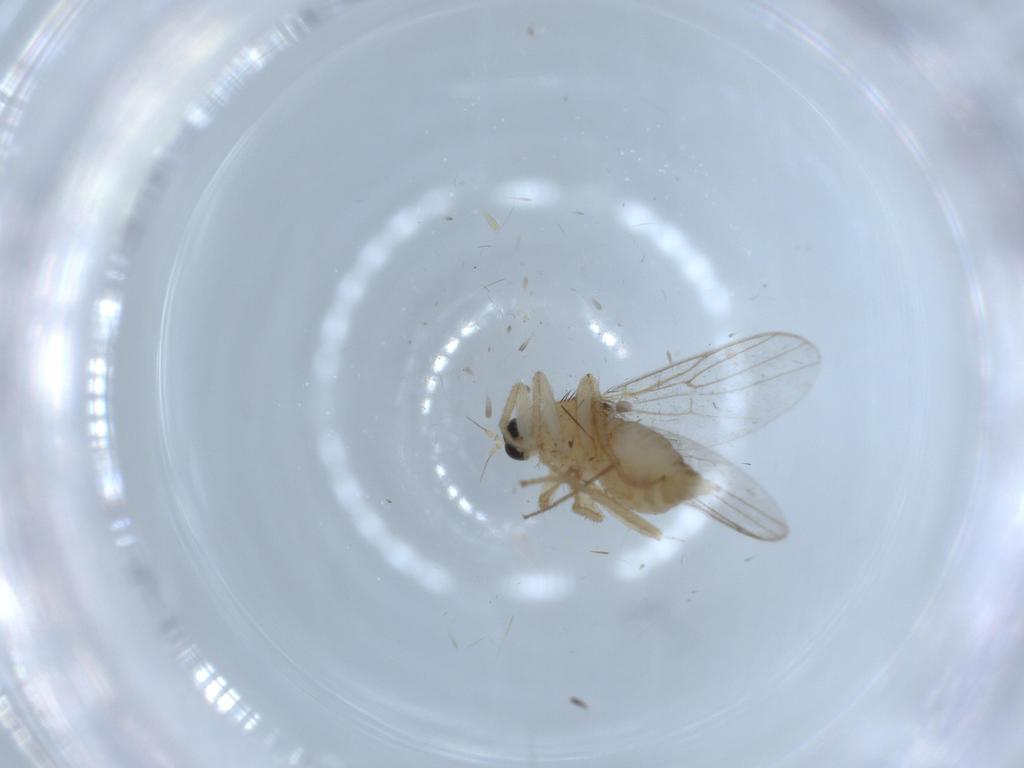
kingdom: Animalia
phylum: Arthropoda
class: Insecta
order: Diptera
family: Hybotidae
